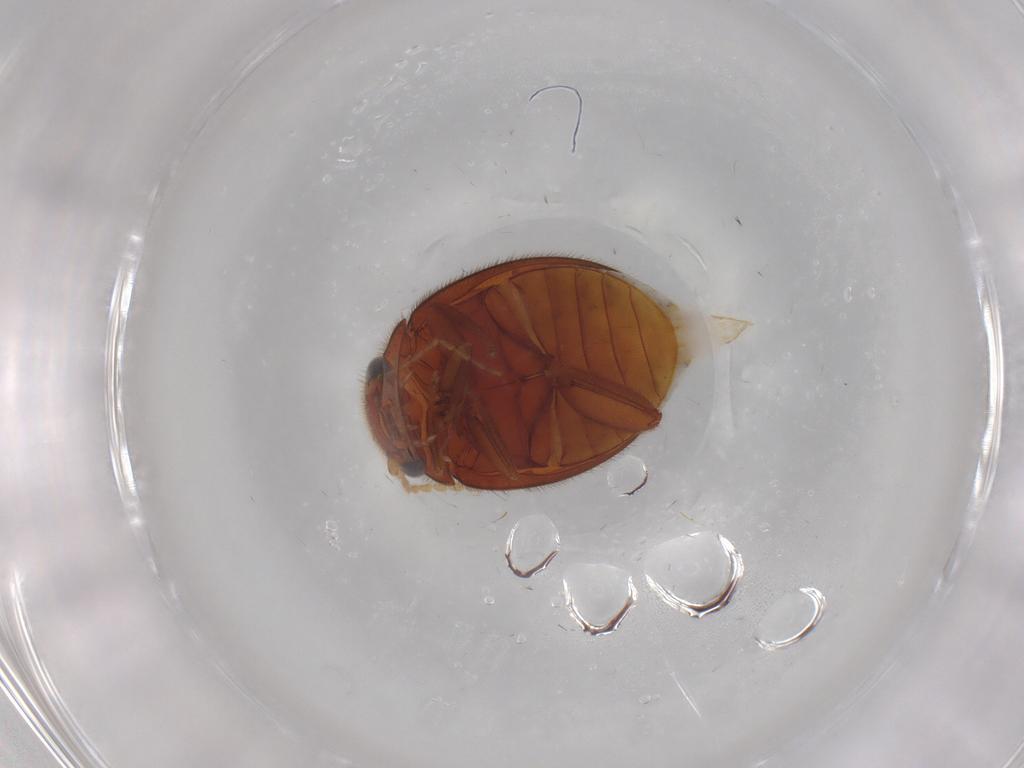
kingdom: Animalia
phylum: Arthropoda
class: Insecta
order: Coleoptera
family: Scirtidae
